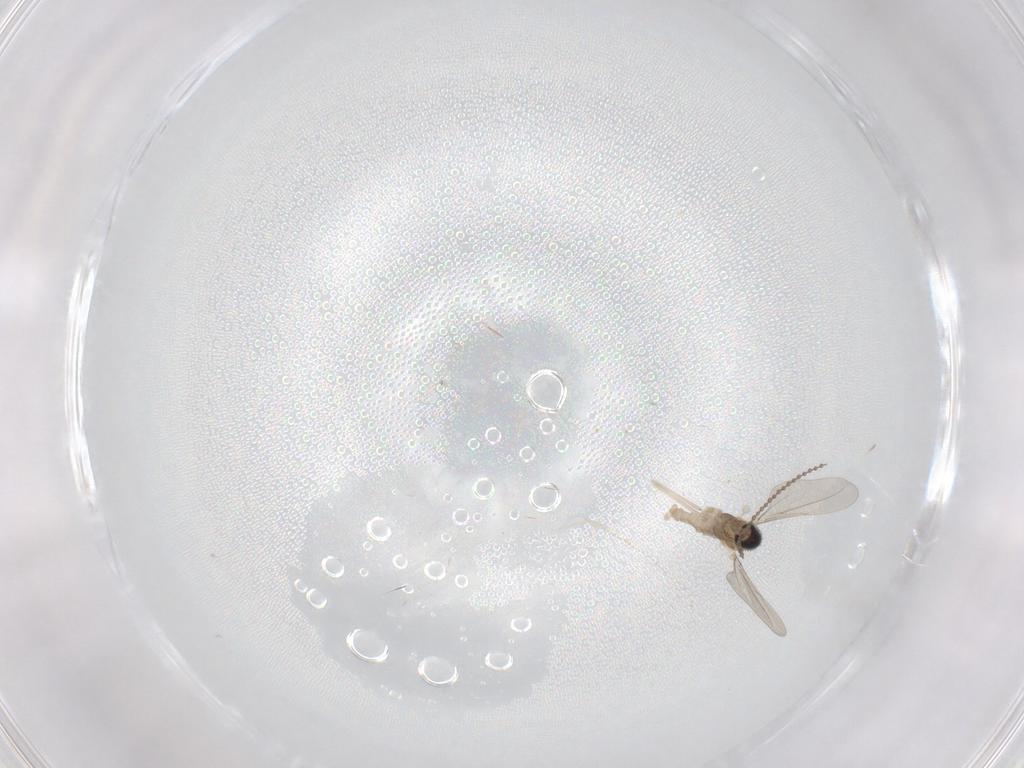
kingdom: Animalia
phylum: Arthropoda
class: Insecta
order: Diptera
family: Cecidomyiidae
